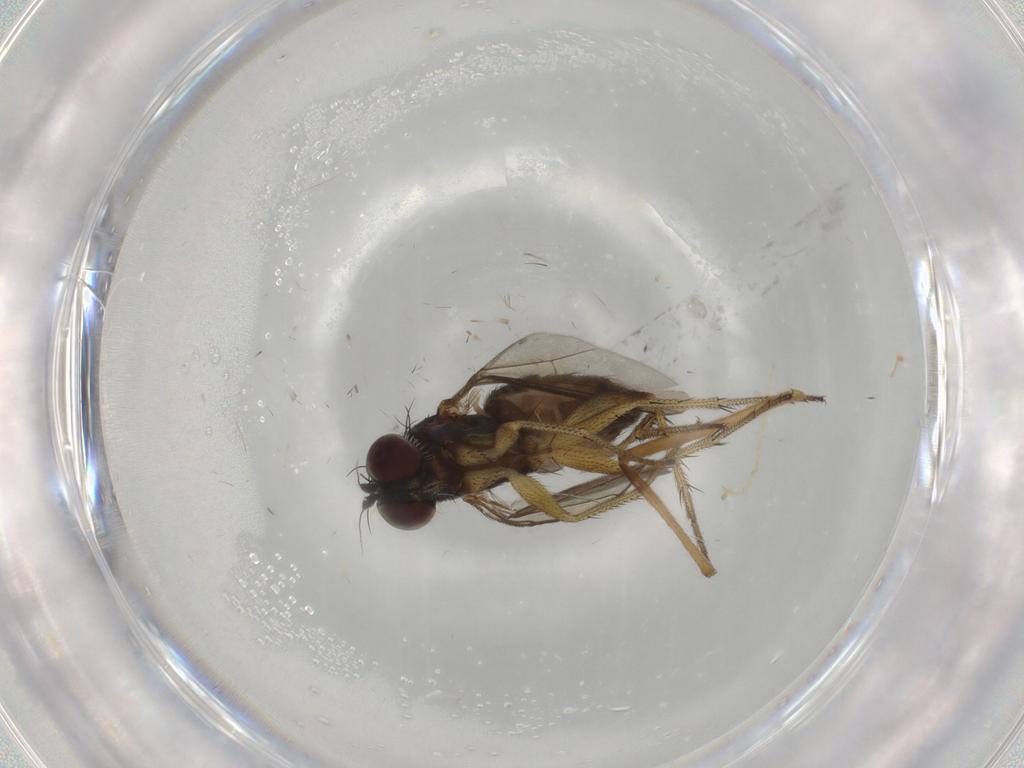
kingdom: Animalia
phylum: Arthropoda
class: Insecta
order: Diptera
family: Dolichopodidae
